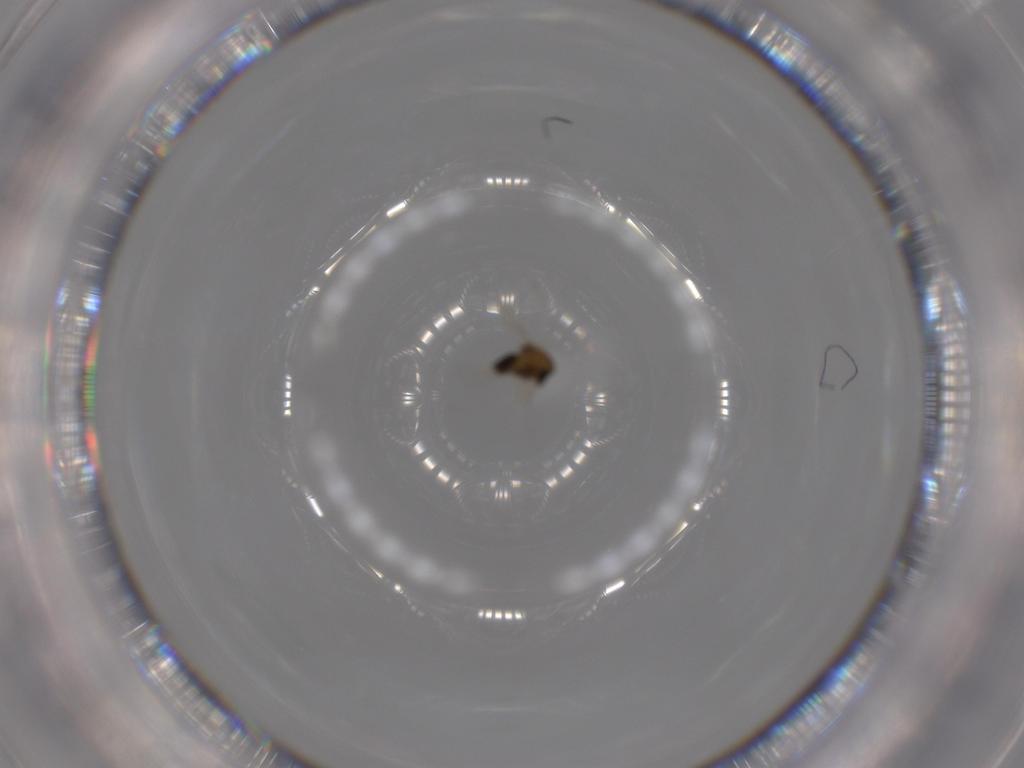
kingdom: Animalia
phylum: Arthropoda
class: Insecta
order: Diptera
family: Chironomidae
